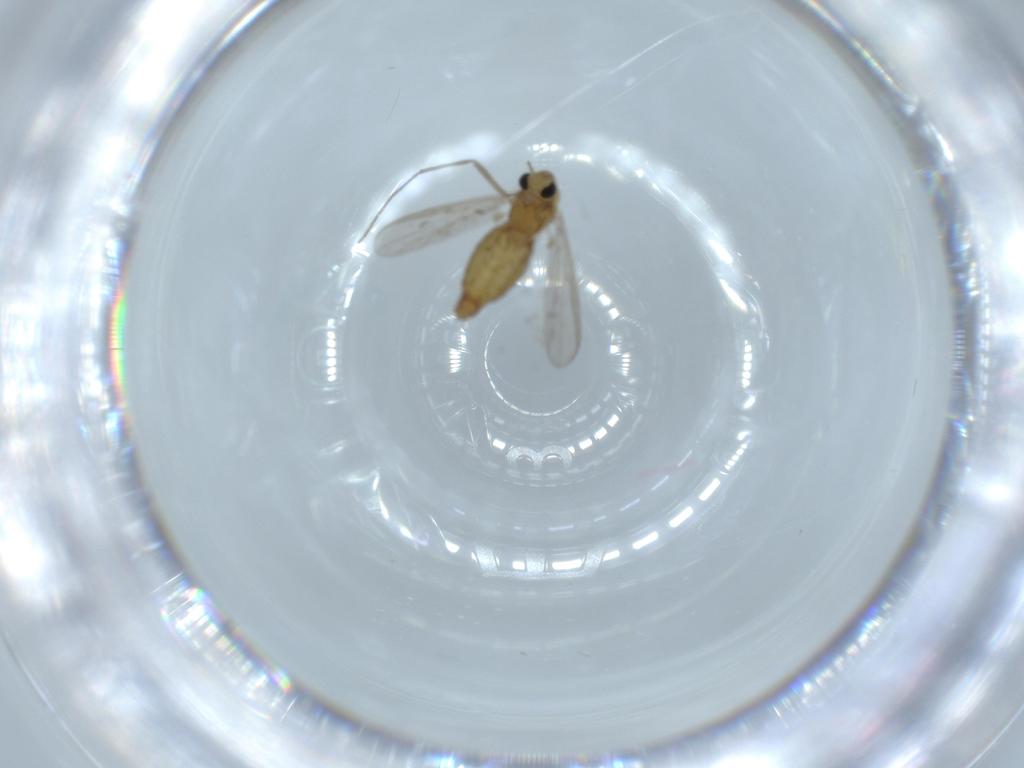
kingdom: Animalia
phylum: Arthropoda
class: Insecta
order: Diptera
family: Chironomidae
